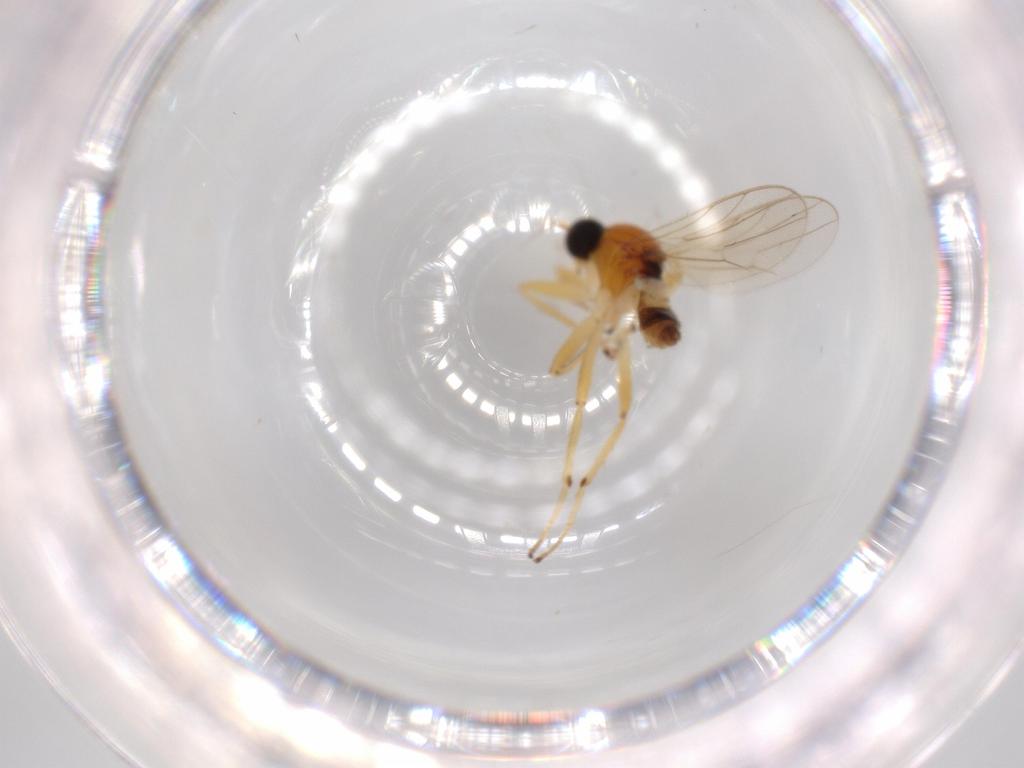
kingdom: Animalia
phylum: Arthropoda
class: Insecta
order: Diptera
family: Hybotidae
